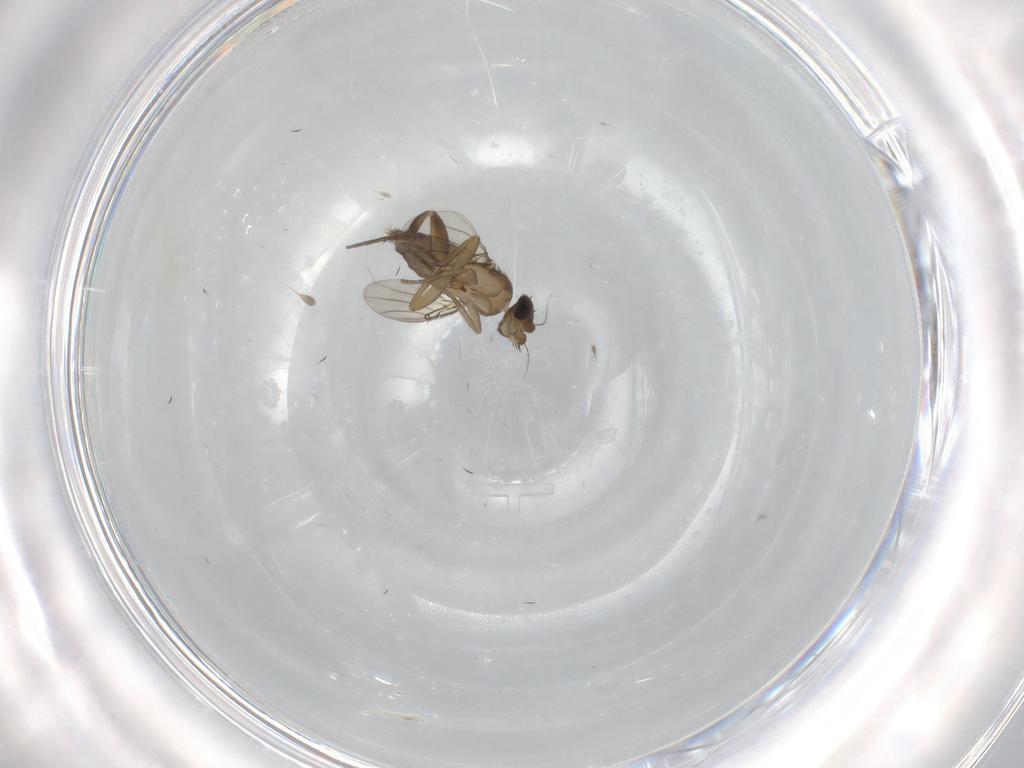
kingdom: Animalia
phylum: Arthropoda
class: Insecta
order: Diptera
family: Phoridae
